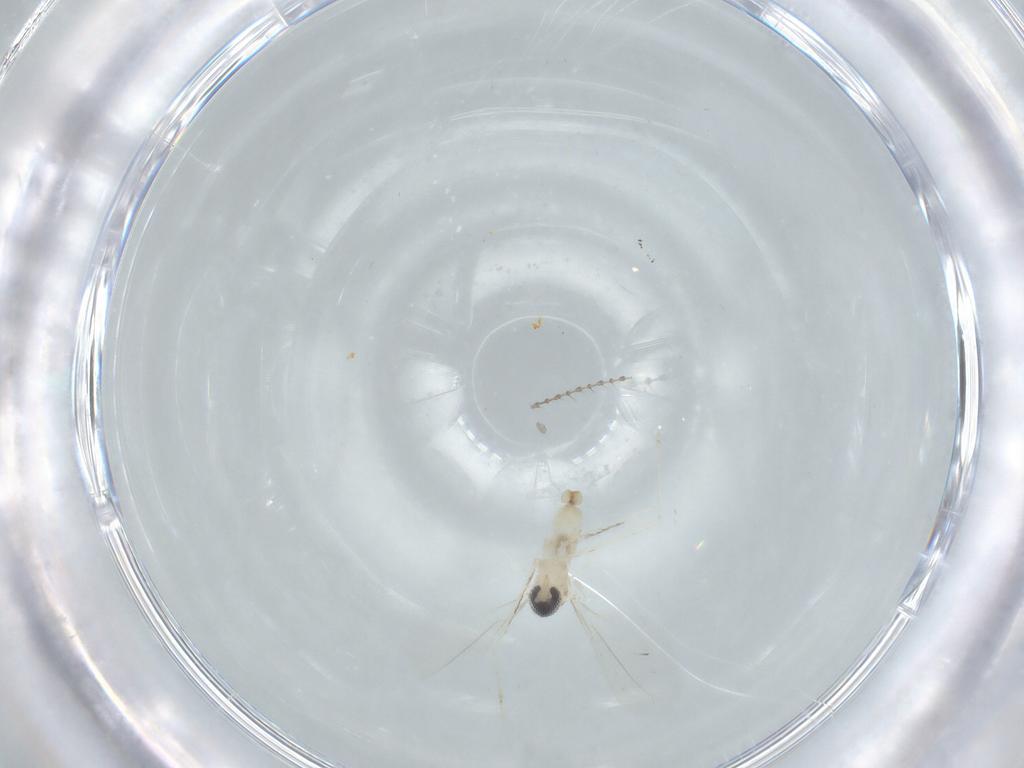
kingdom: Animalia
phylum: Arthropoda
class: Insecta
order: Diptera
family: Cecidomyiidae
